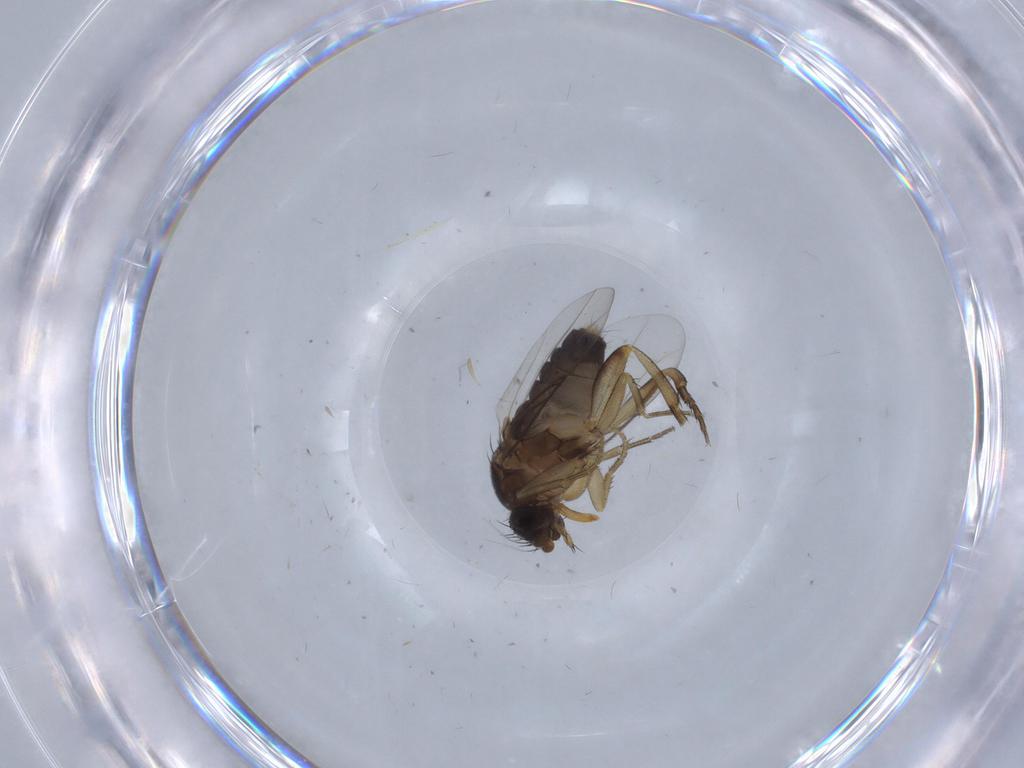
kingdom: Animalia
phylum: Arthropoda
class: Insecta
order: Diptera
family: Phoridae
